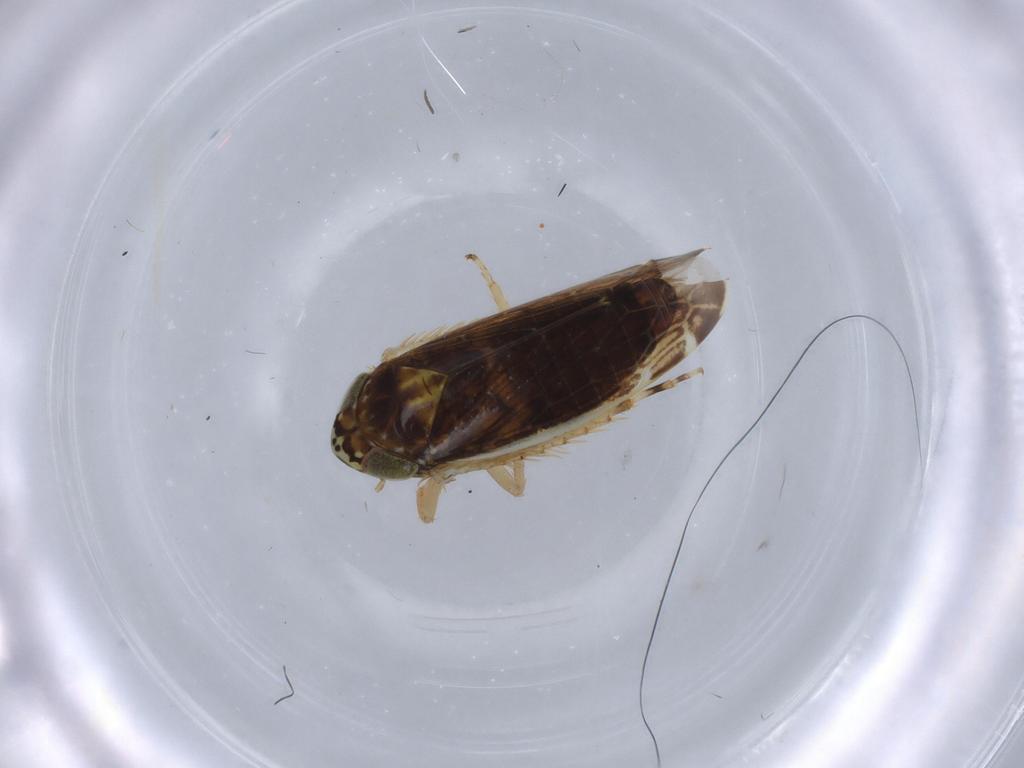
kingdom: Animalia
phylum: Arthropoda
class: Insecta
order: Hemiptera
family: Cicadellidae
